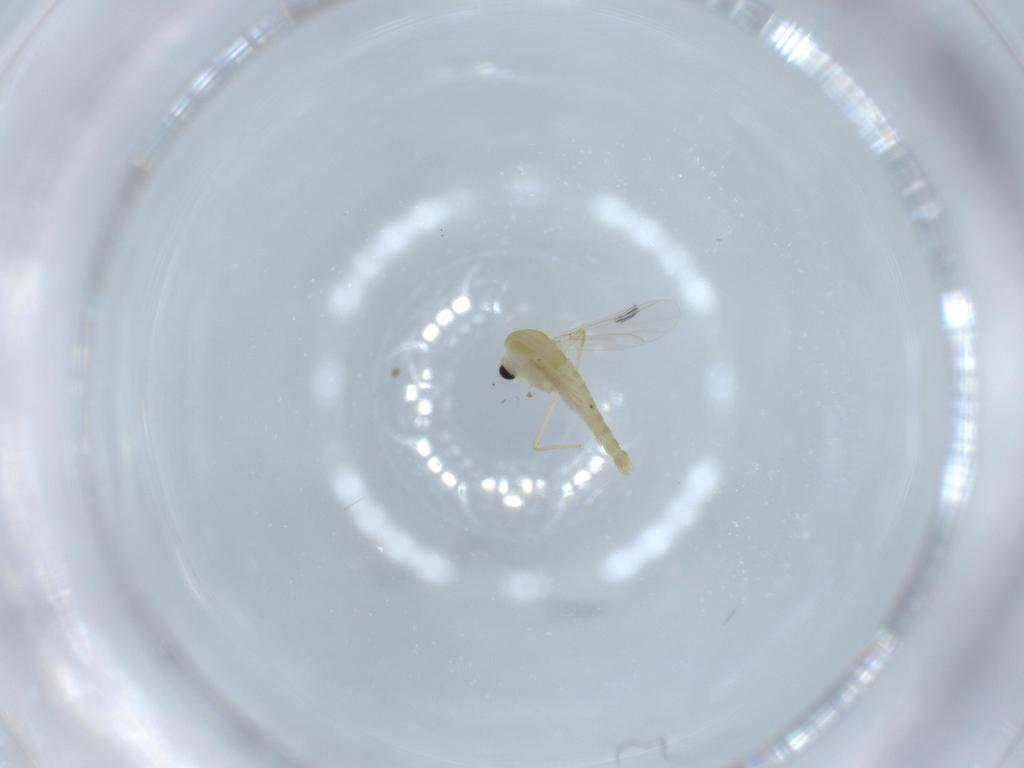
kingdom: Animalia
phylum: Arthropoda
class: Insecta
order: Diptera
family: Chironomidae
